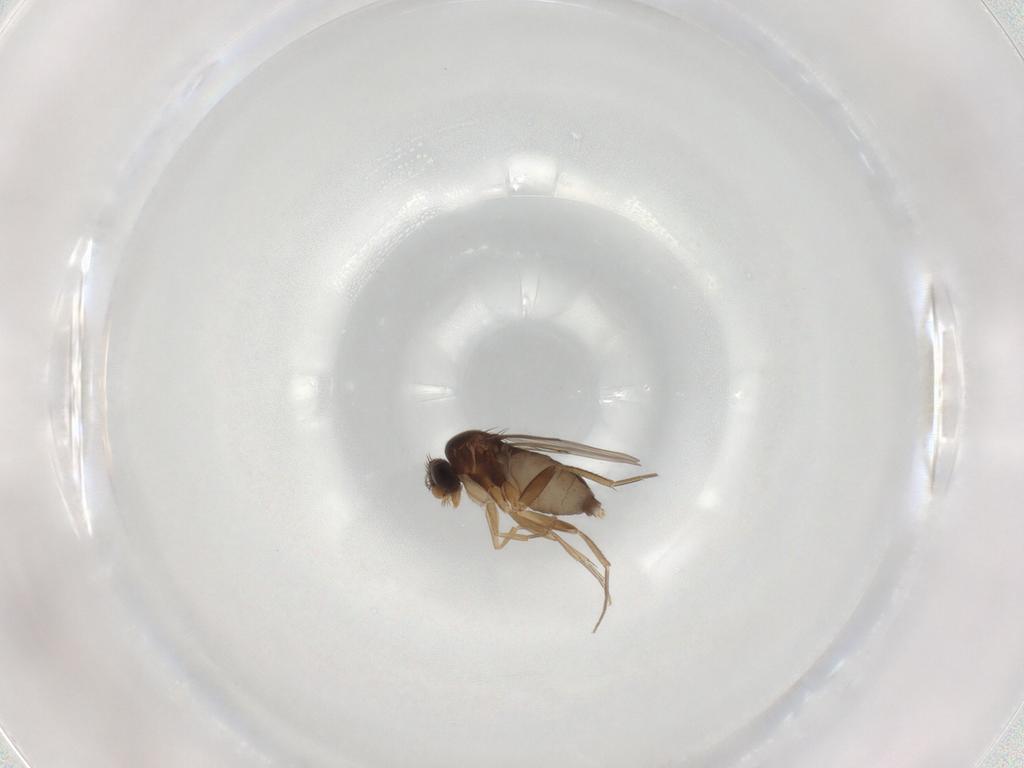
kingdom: Animalia
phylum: Arthropoda
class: Insecta
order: Diptera
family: Phoridae
